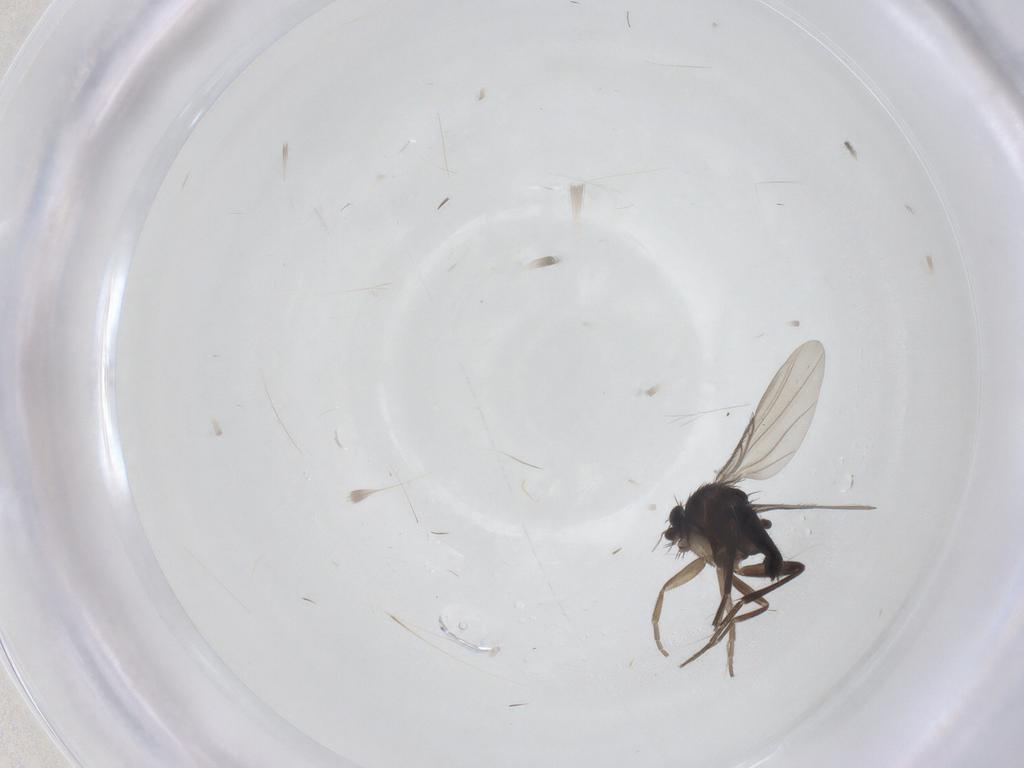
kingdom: Animalia
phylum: Arthropoda
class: Insecta
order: Diptera
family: Phoridae
